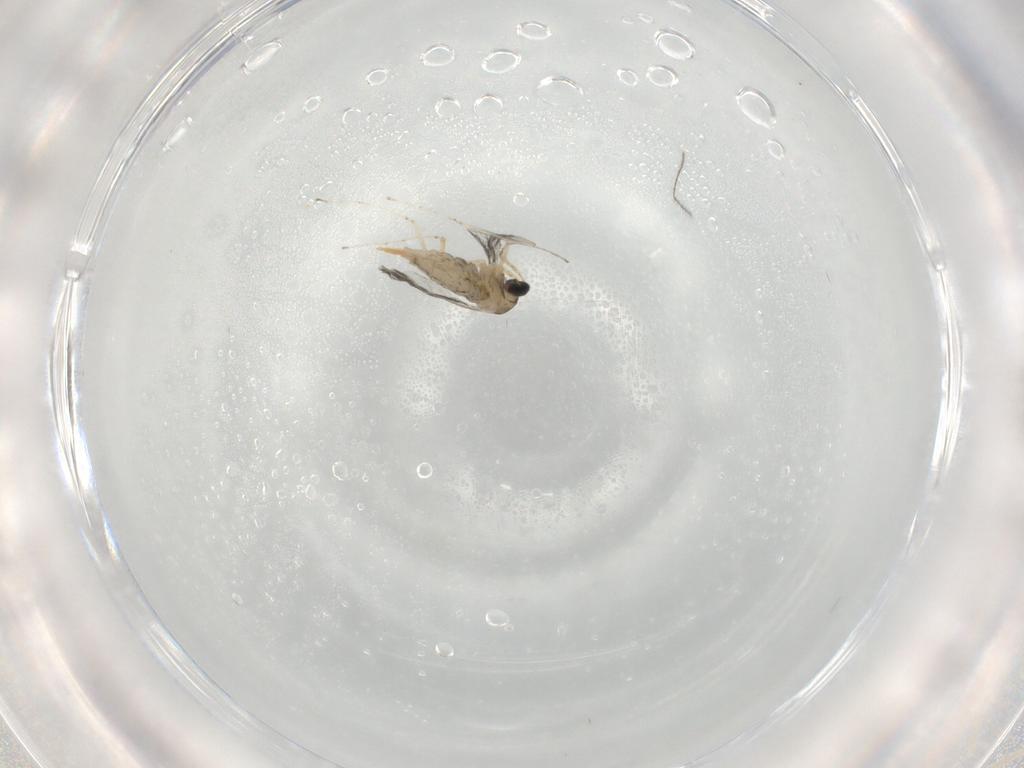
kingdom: Animalia
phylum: Arthropoda
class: Insecta
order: Diptera
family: Cecidomyiidae
